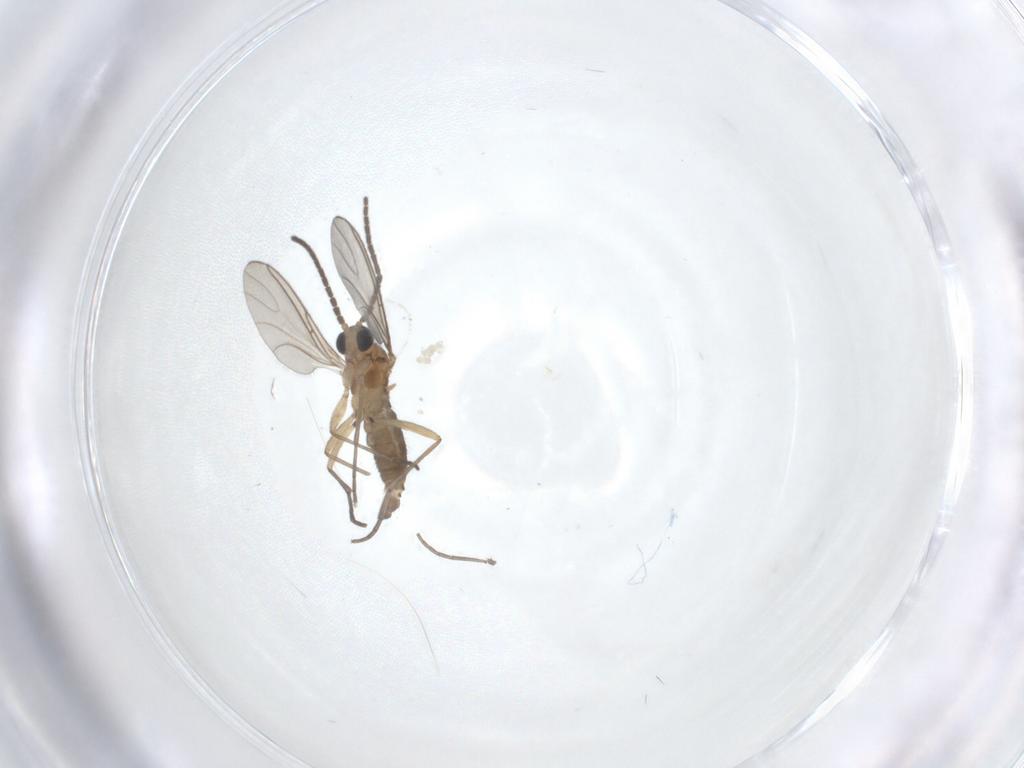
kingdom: Animalia
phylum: Arthropoda
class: Insecta
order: Diptera
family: Sciaridae
